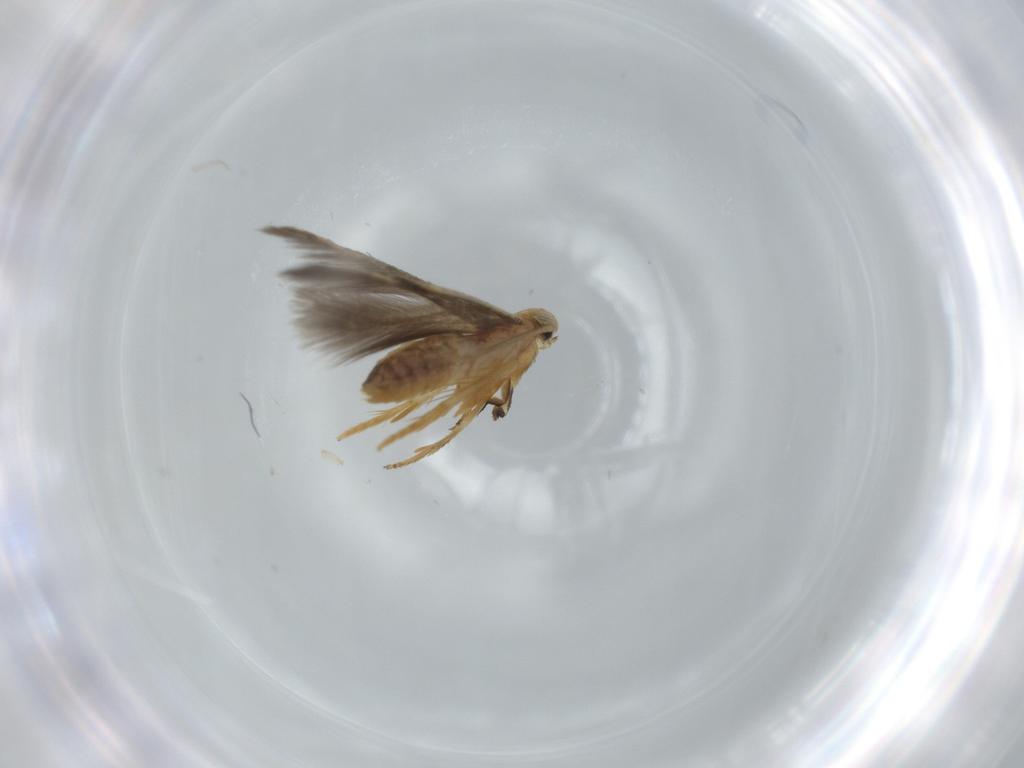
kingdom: Animalia
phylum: Arthropoda
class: Insecta
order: Lepidoptera
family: Nepticulidae
